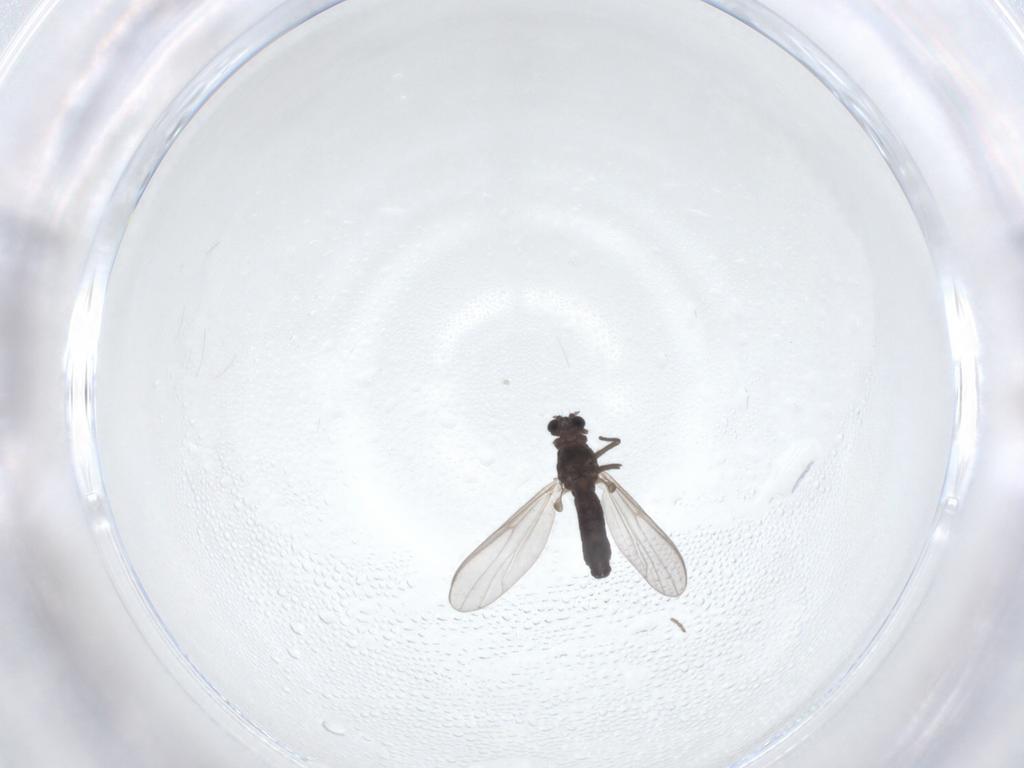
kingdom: Animalia
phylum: Arthropoda
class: Insecta
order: Diptera
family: Chironomidae
